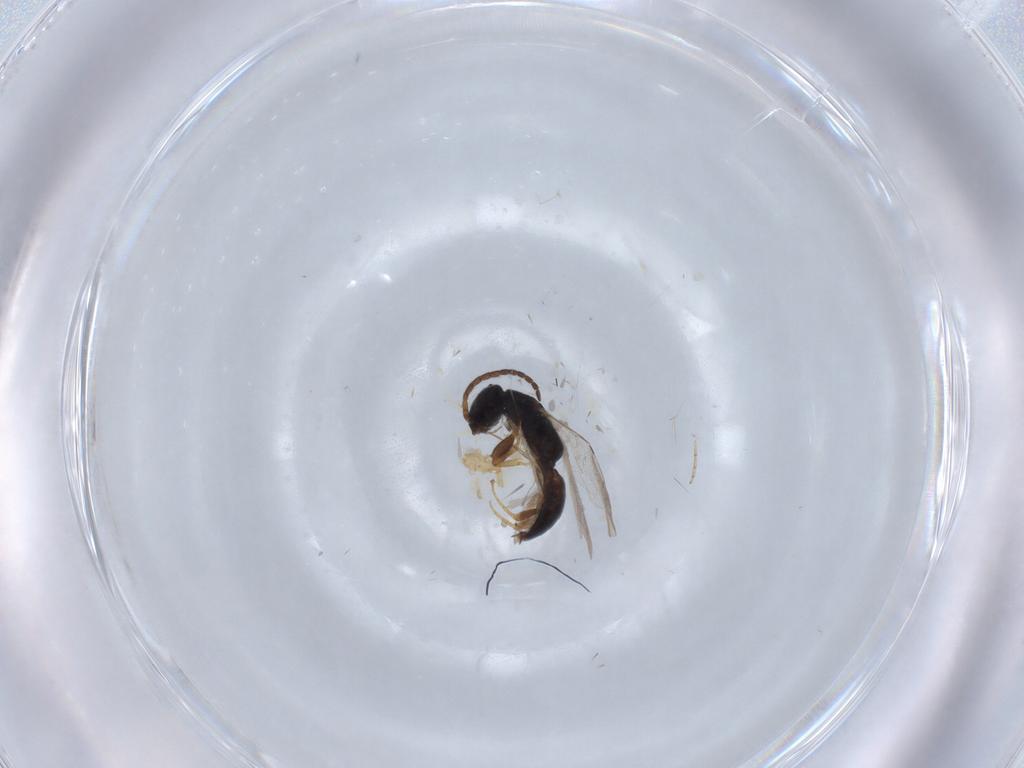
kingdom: Animalia
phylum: Arthropoda
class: Insecta
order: Hymenoptera
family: Bethylidae
